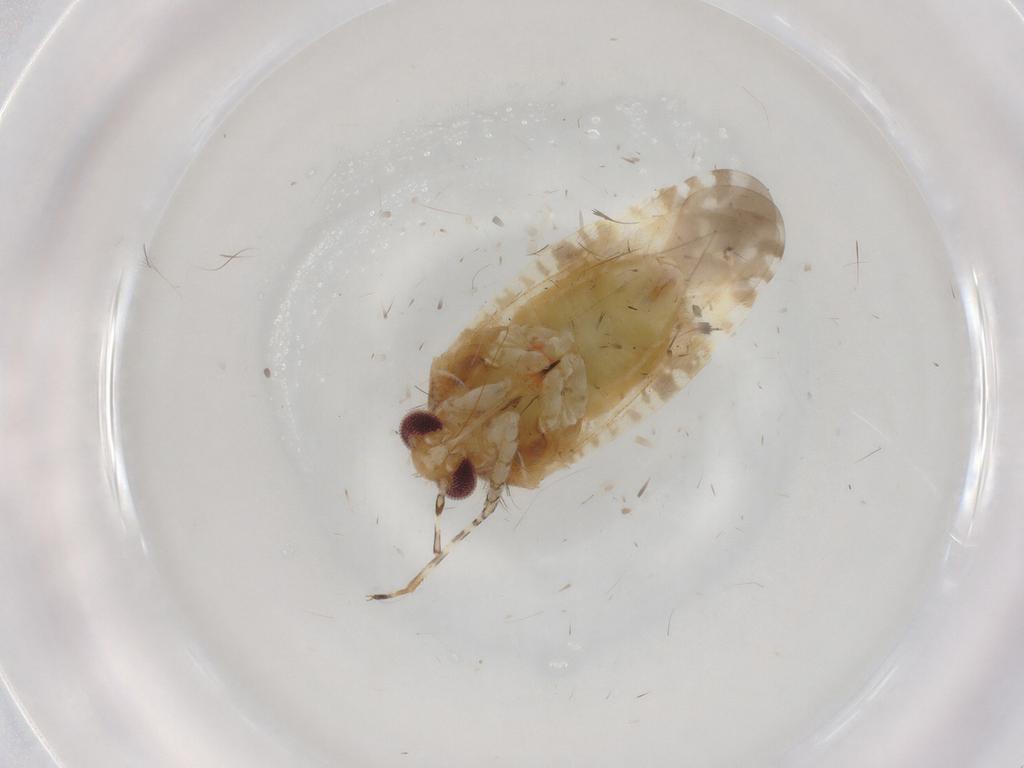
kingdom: Animalia
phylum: Arthropoda
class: Insecta
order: Hemiptera
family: Miridae
